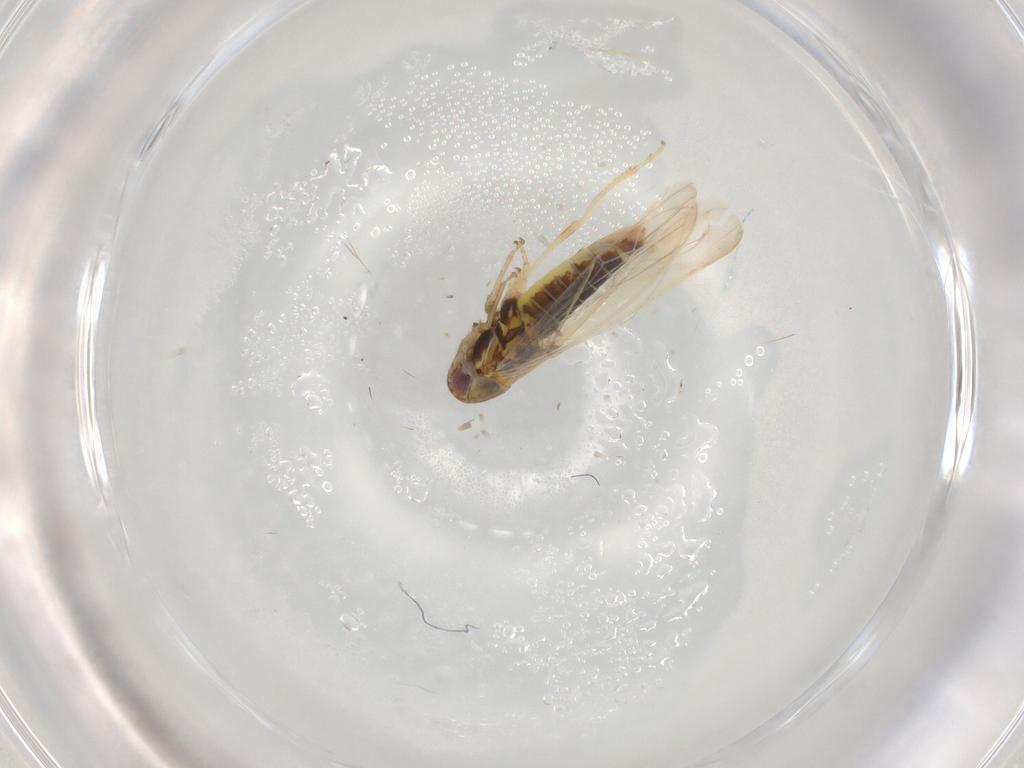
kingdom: Animalia
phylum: Arthropoda
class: Insecta
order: Hemiptera
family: Cicadellidae
